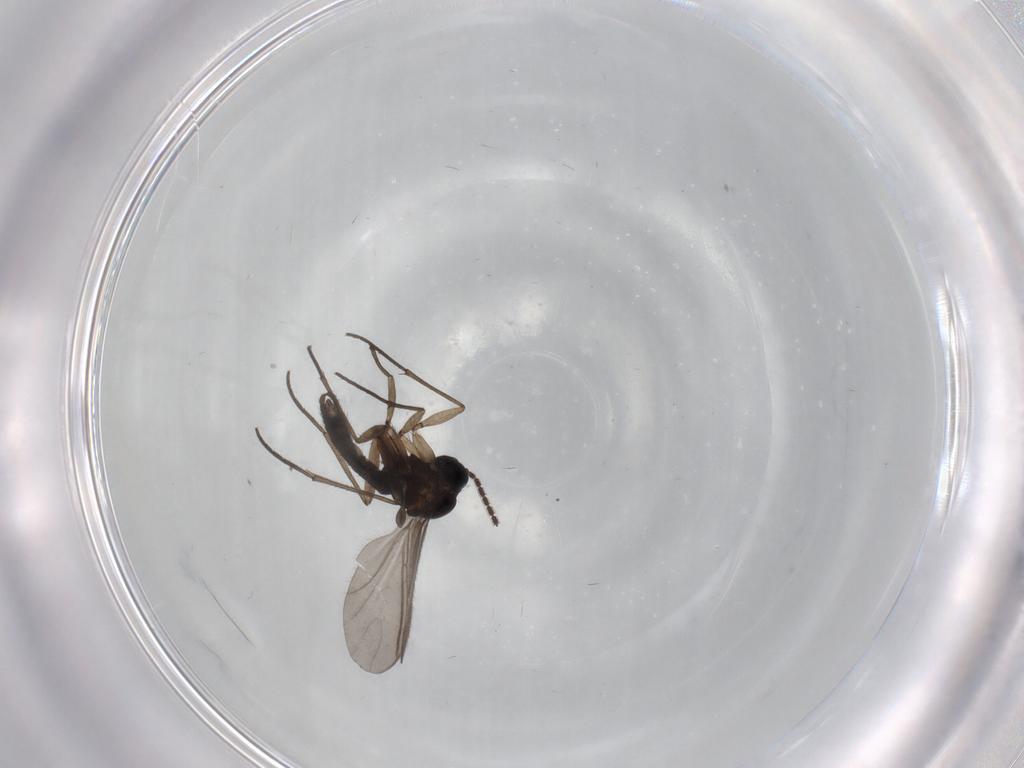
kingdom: Animalia
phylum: Arthropoda
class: Insecta
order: Diptera
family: Sciaridae
